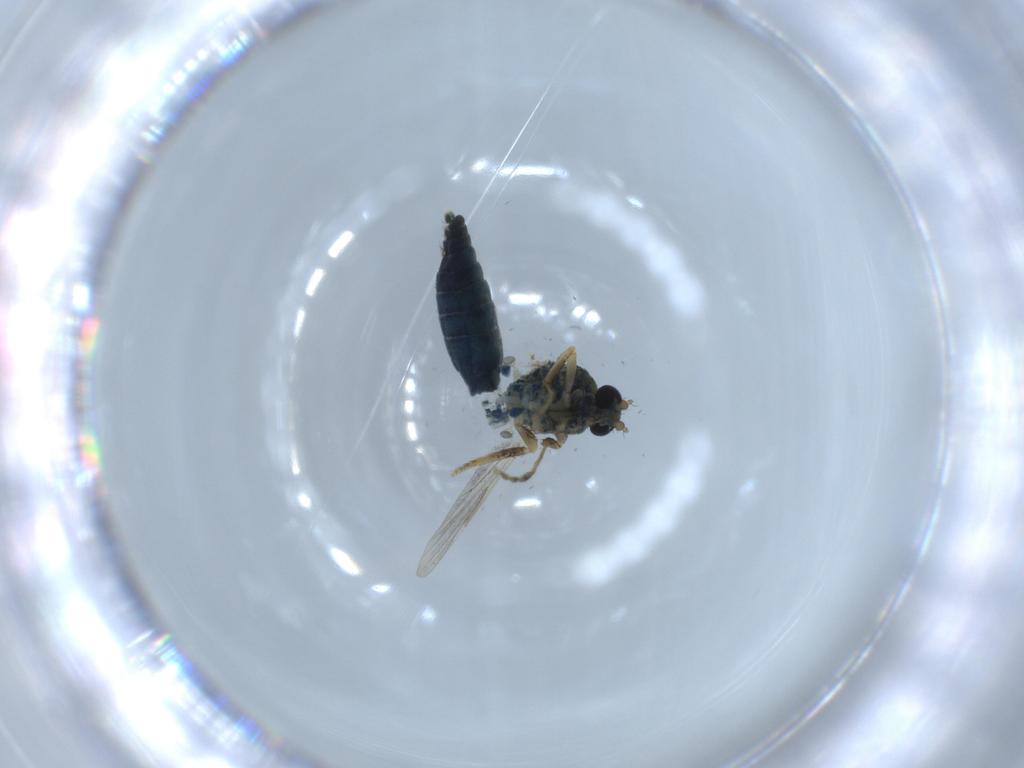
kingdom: Animalia
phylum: Arthropoda
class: Insecta
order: Diptera
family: Ceratopogonidae
